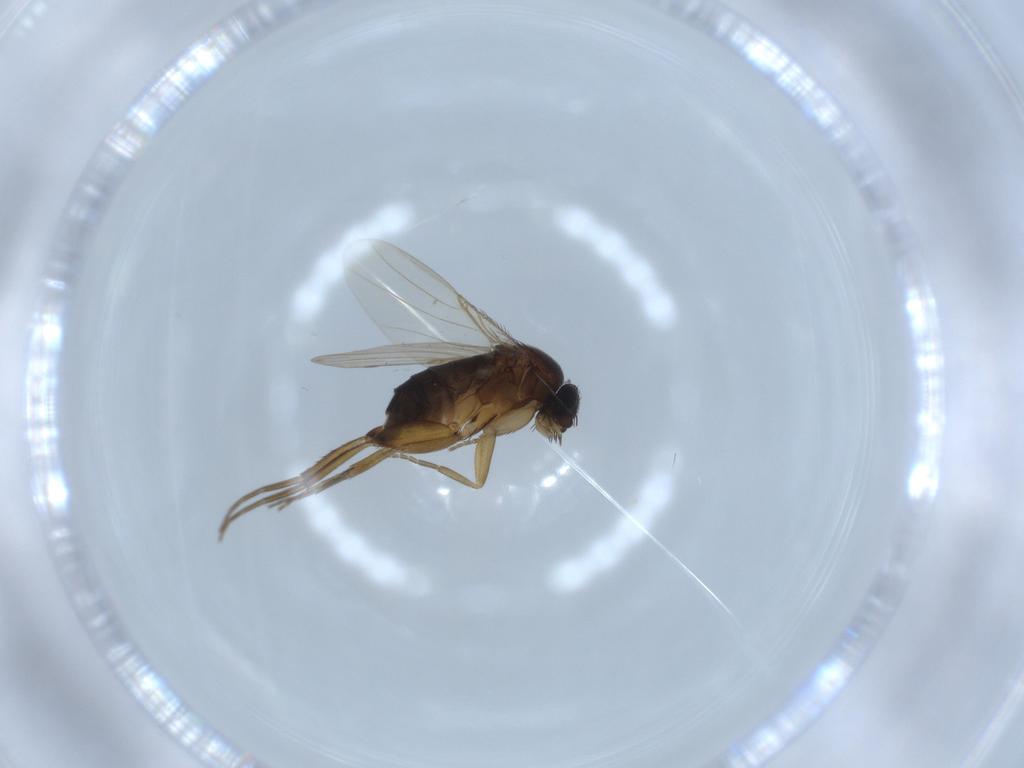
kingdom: Animalia
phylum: Arthropoda
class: Insecta
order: Diptera
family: Phoridae
